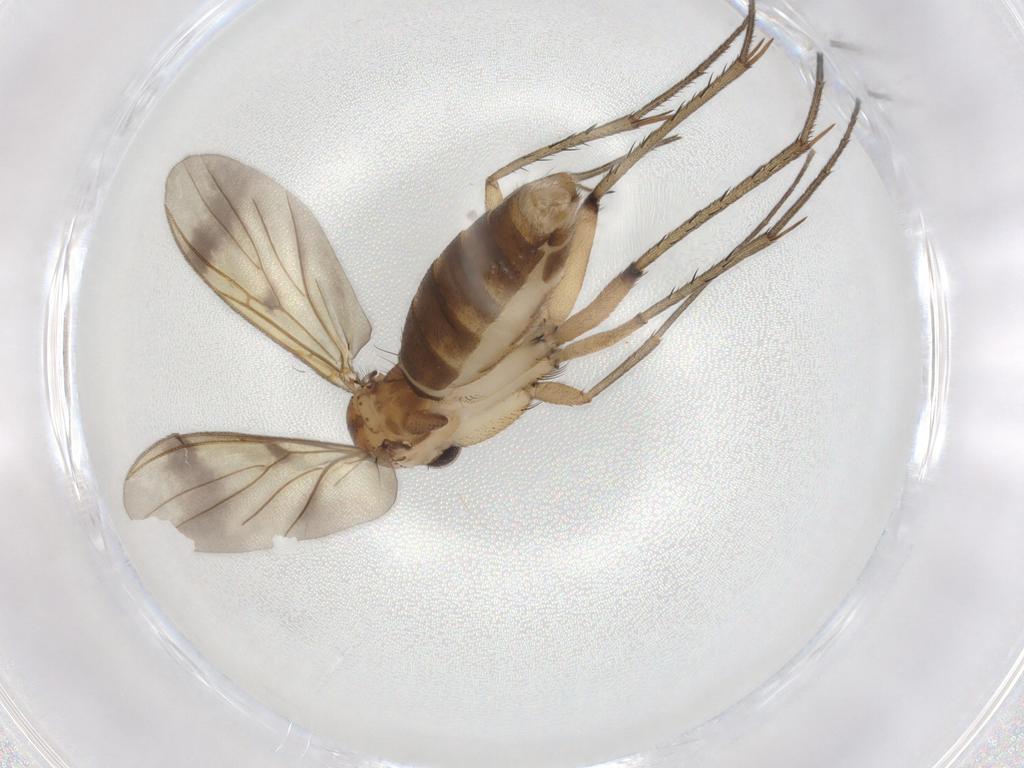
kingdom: Animalia
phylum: Arthropoda
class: Insecta
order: Diptera
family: Mycetophilidae
